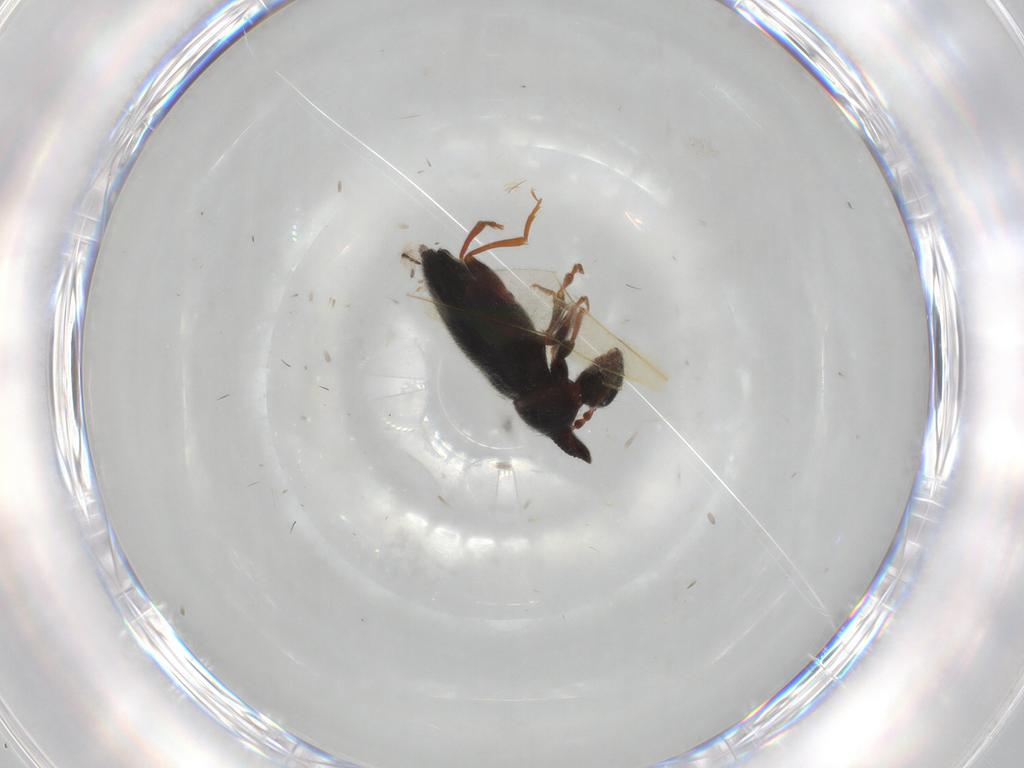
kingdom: Animalia
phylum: Arthropoda
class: Insecta
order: Coleoptera
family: Anthicidae
